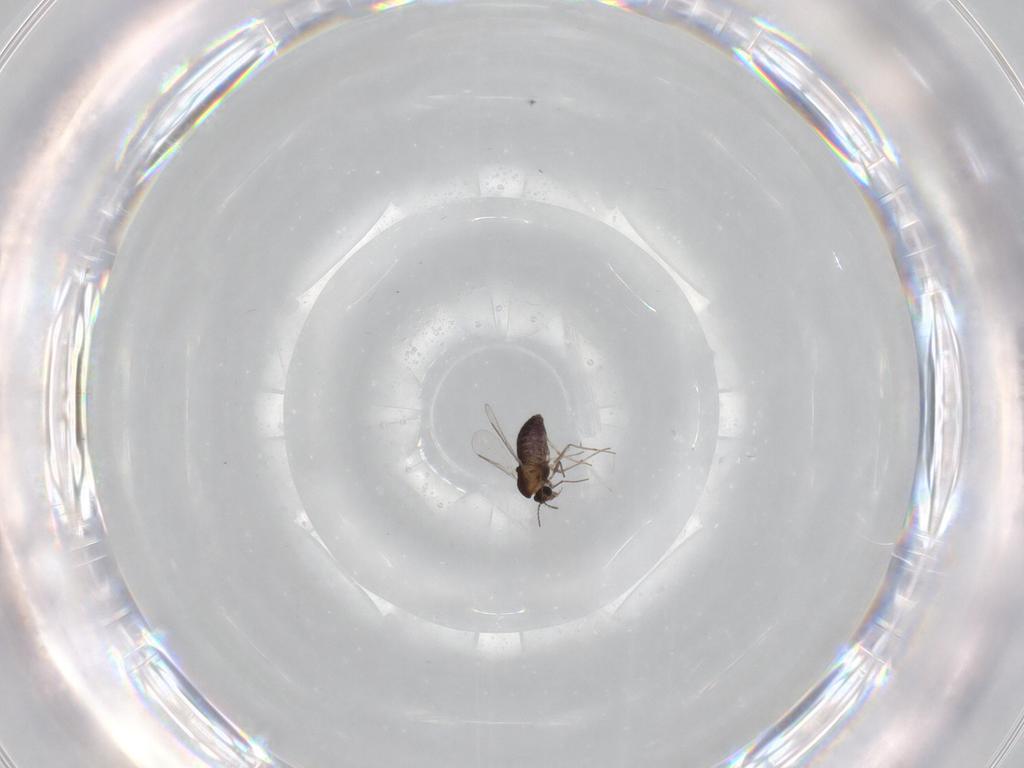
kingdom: Animalia
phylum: Arthropoda
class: Insecta
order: Diptera
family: Chironomidae
